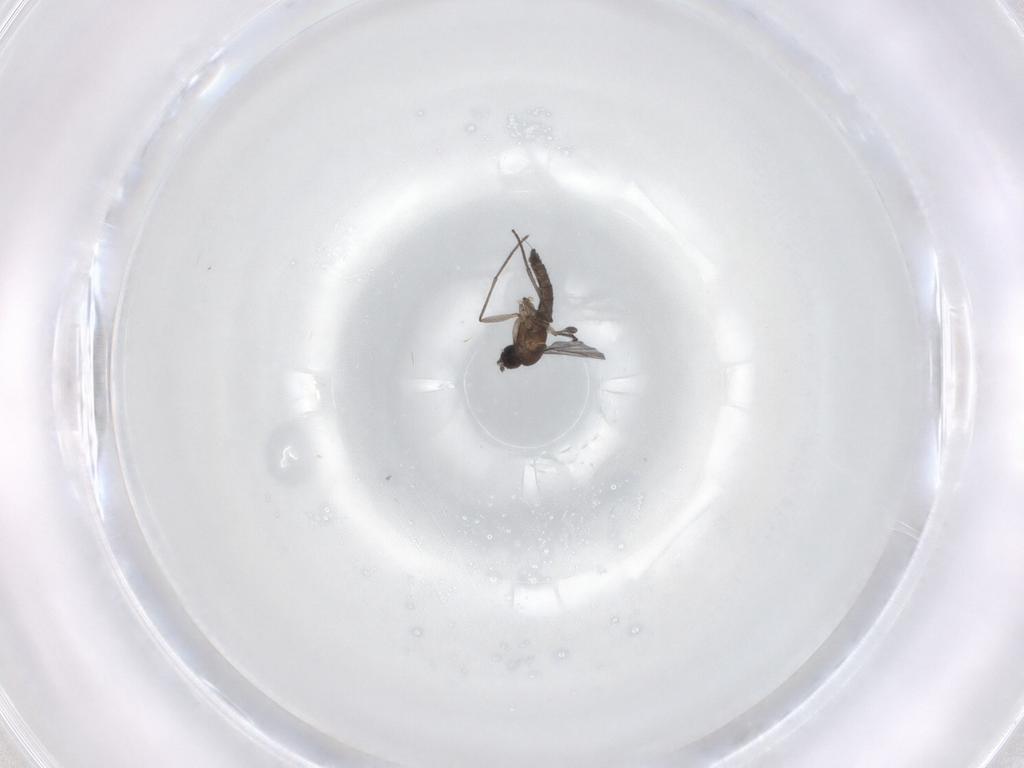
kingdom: Animalia
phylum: Arthropoda
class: Insecta
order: Diptera
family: Sciaridae
